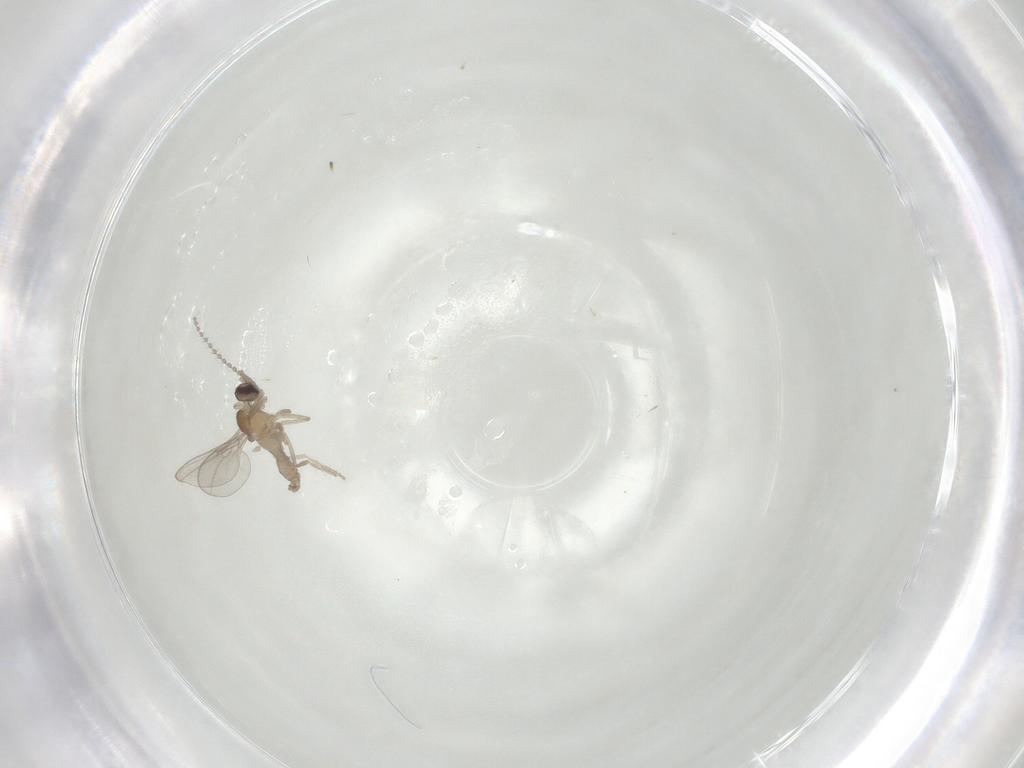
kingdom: Animalia
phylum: Arthropoda
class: Insecta
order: Diptera
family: Cecidomyiidae
